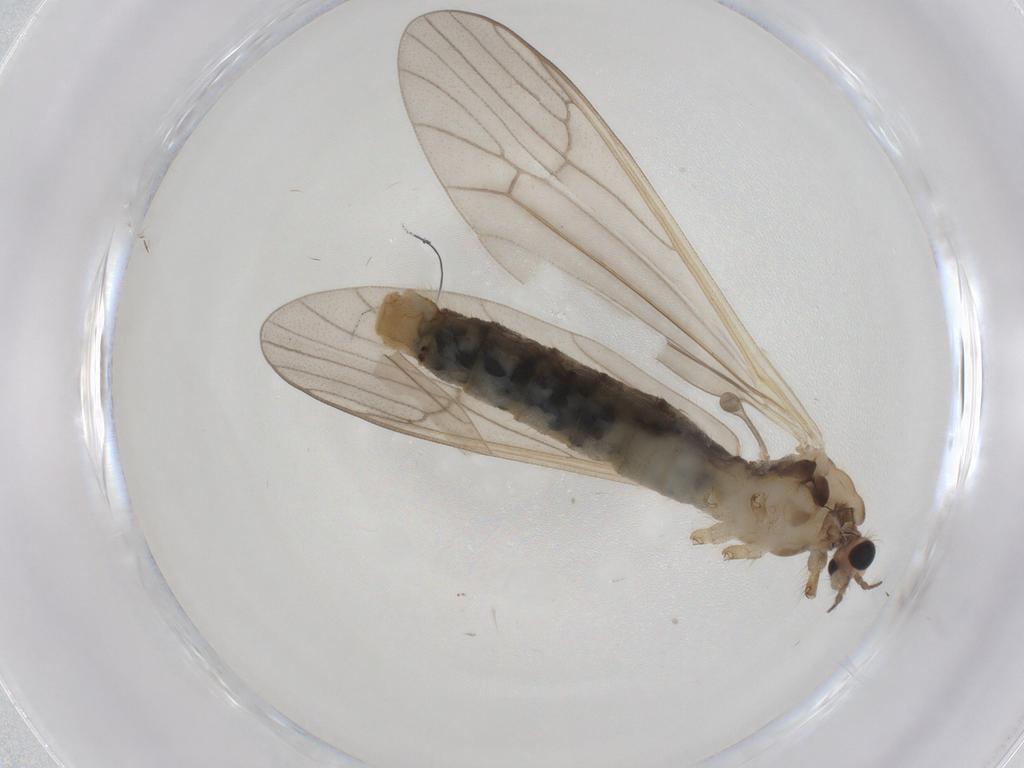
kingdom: Animalia
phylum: Arthropoda
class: Insecta
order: Diptera
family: Limoniidae
